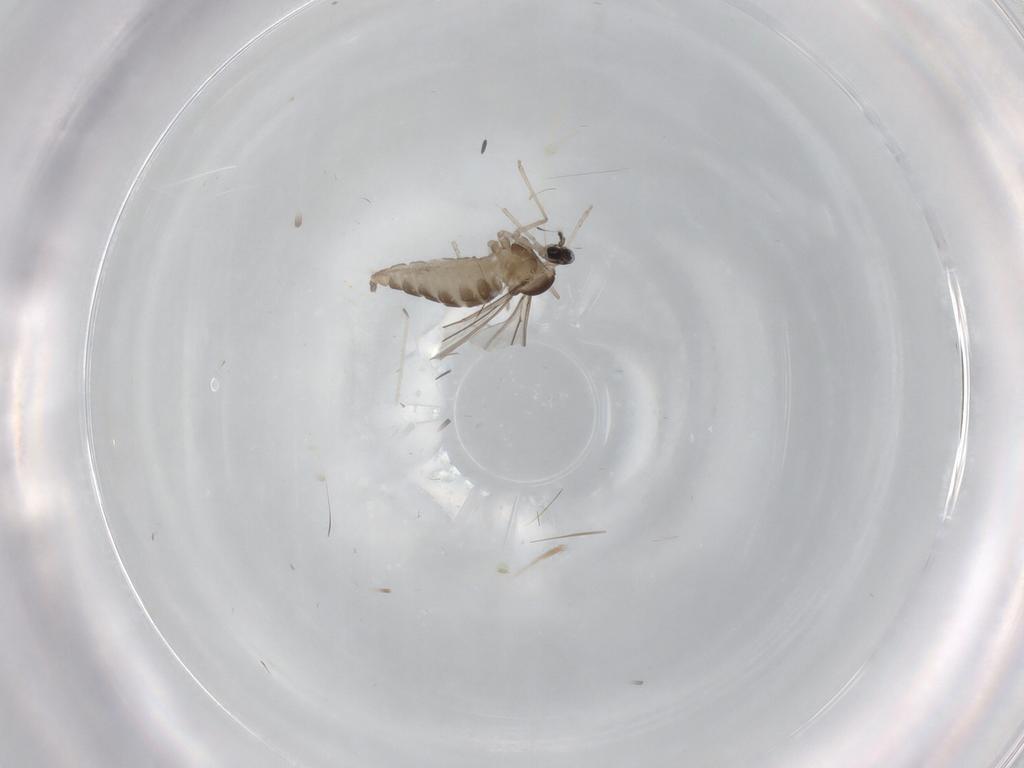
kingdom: Animalia
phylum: Arthropoda
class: Insecta
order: Diptera
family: Cecidomyiidae
